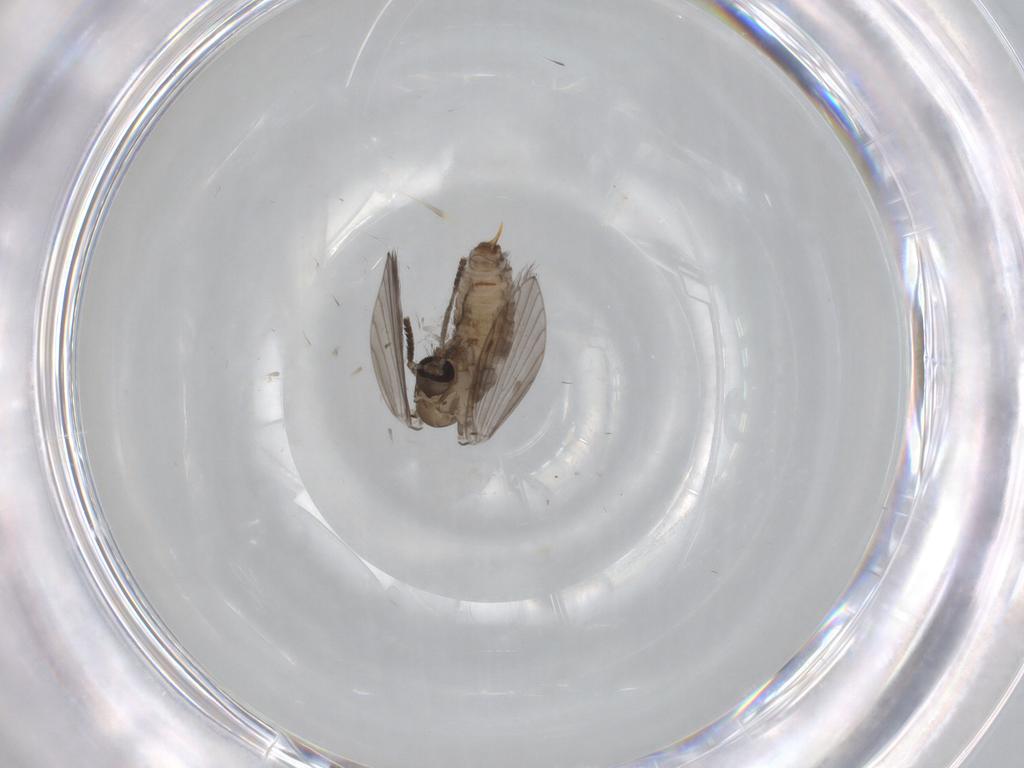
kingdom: Animalia
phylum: Arthropoda
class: Insecta
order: Diptera
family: Psychodidae
